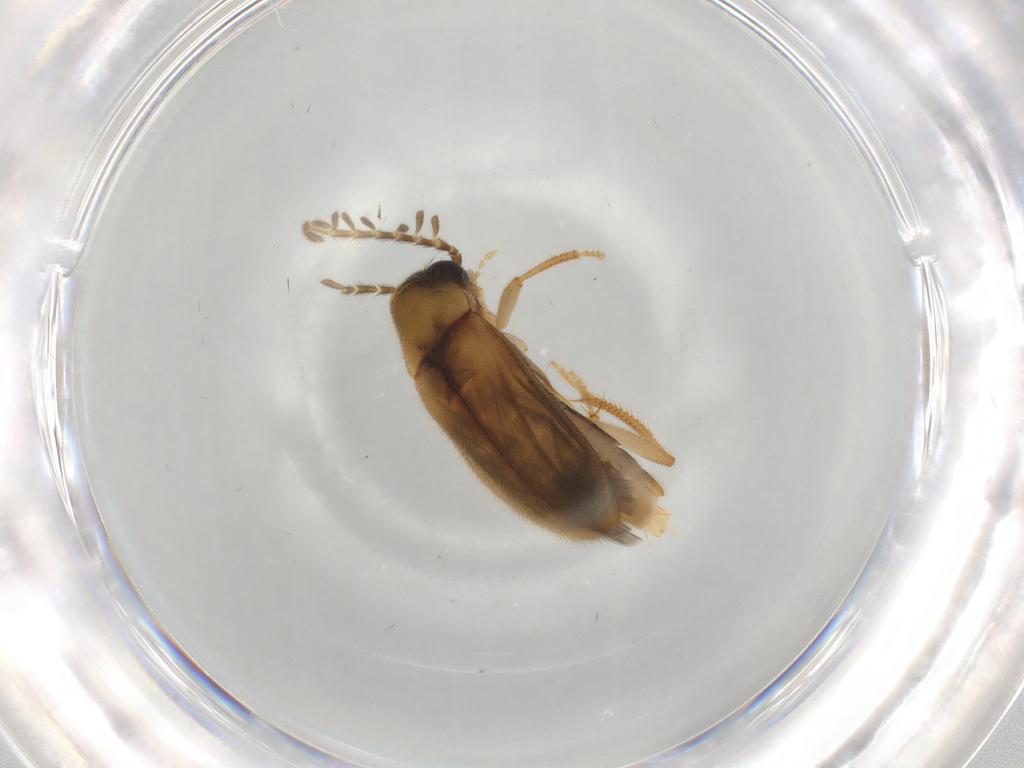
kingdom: Animalia
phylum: Arthropoda
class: Insecta
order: Coleoptera
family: Ptilodactylidae
